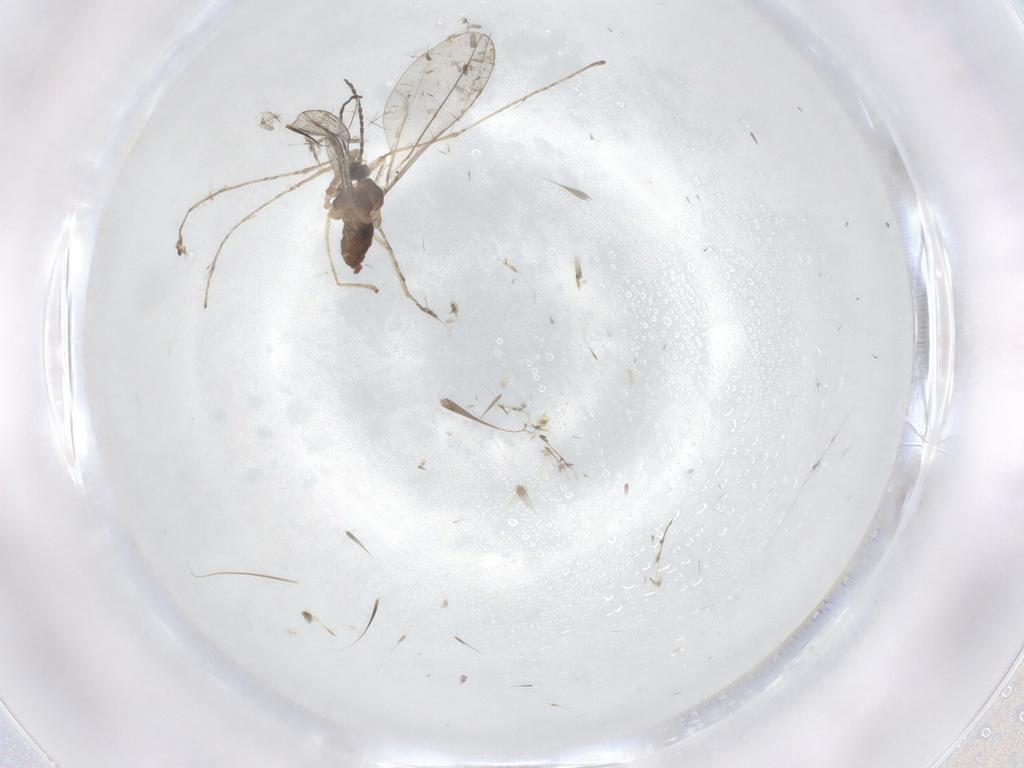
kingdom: Animalia
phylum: Arthropoda
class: Insecta
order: Diptera
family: Cecidomyiidae
